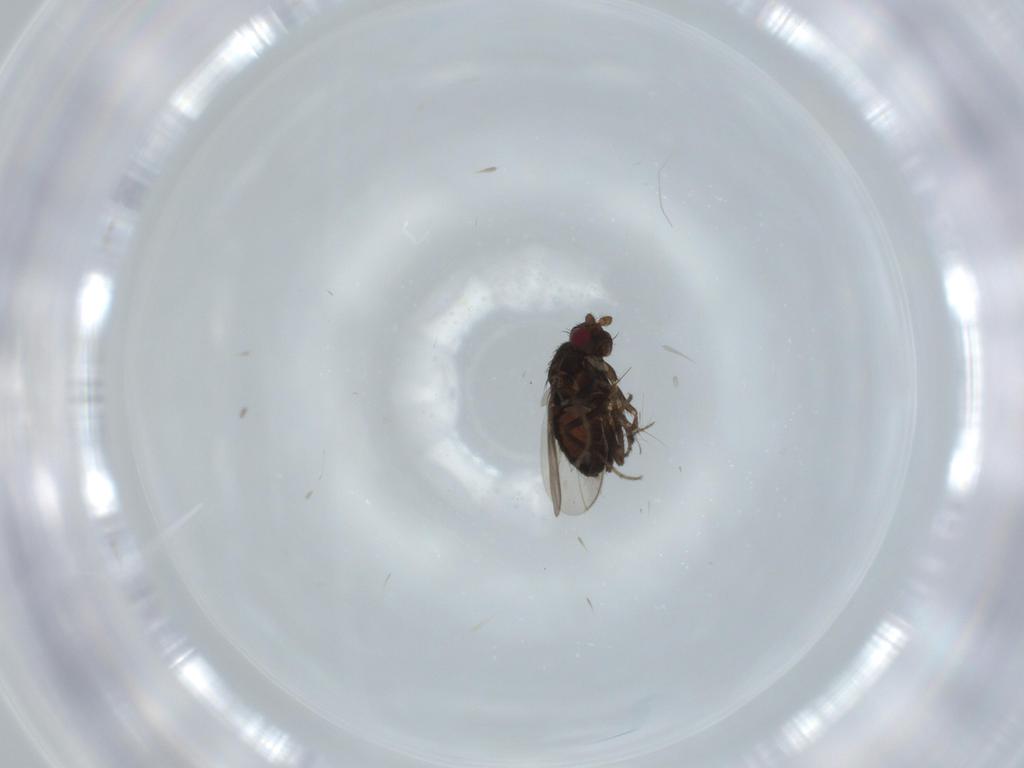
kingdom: Animalia
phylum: Arthropoda
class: Insecta
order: Diptera
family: Ceratopogonidae
